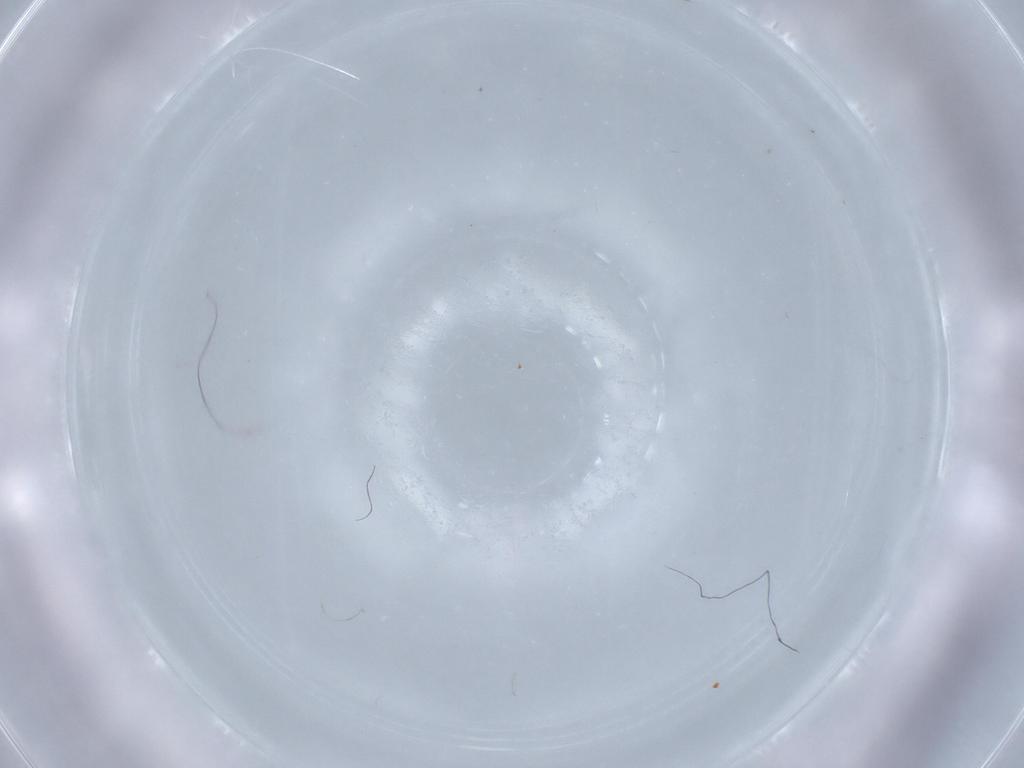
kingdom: Animalia
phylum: Arthropoda
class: Insecta
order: Diptera
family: Cecidomyiidae
